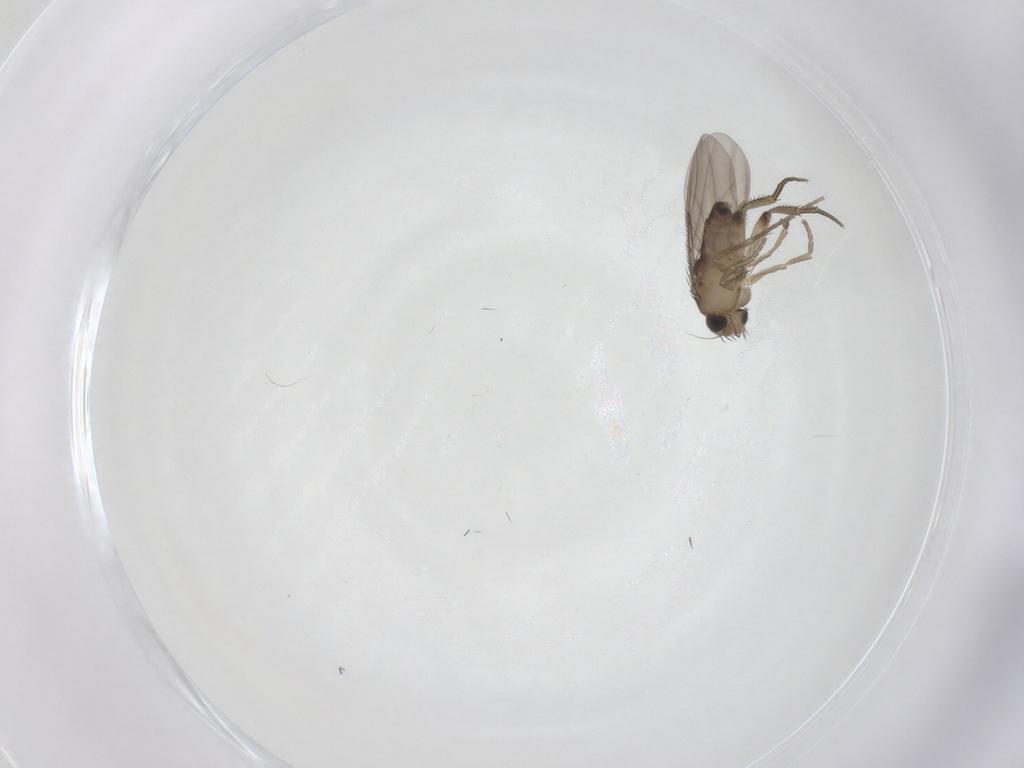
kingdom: Animalia
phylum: Arthropoda
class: Insecta
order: Diptera
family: Phoridae
